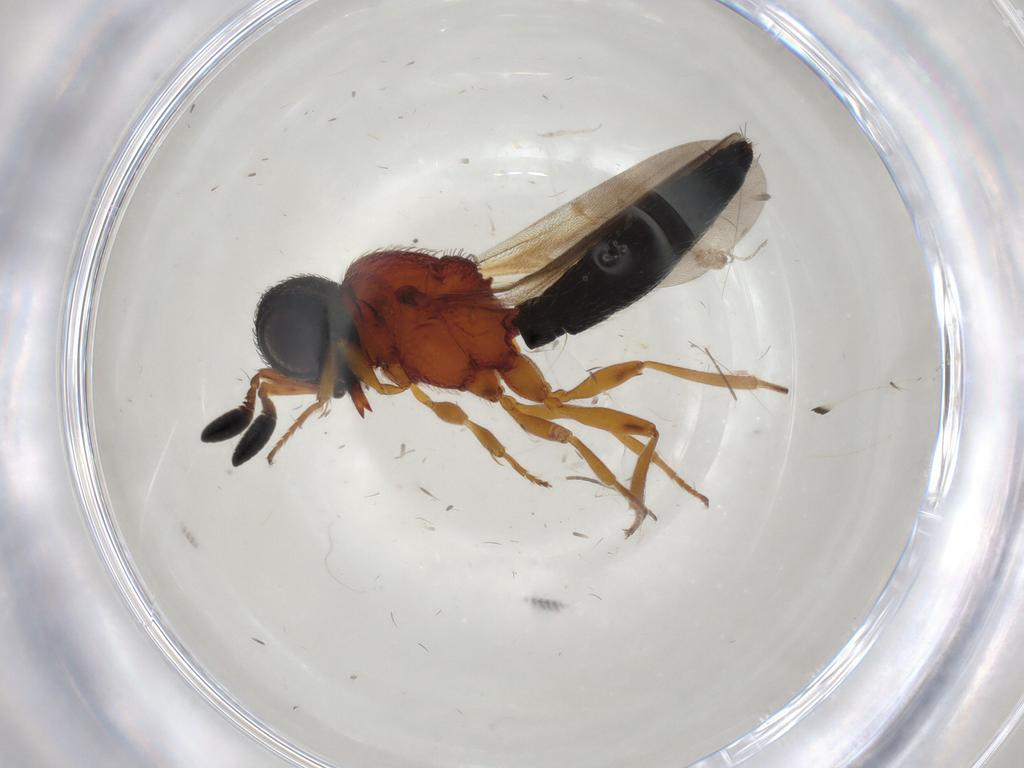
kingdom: Animalia
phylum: Arthropoda
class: Insecta
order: Hymenoptera
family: Scelionidae
